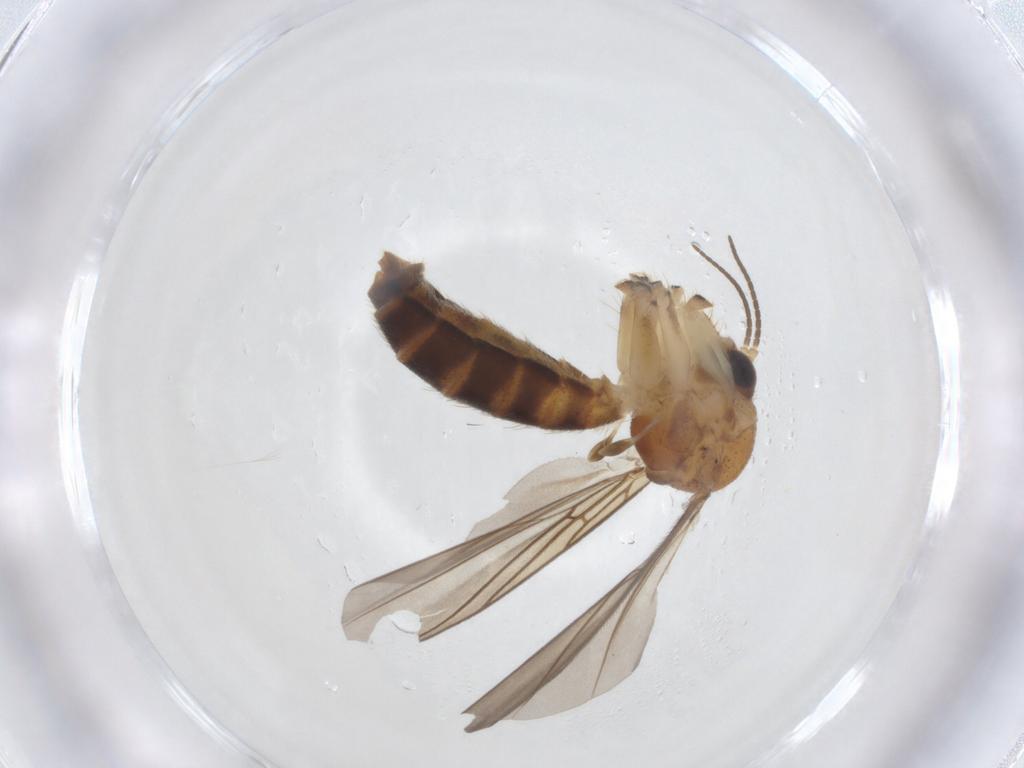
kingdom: Animalia
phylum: Arthropoda
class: Insecta
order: Diptera
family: Mycetophilidae
